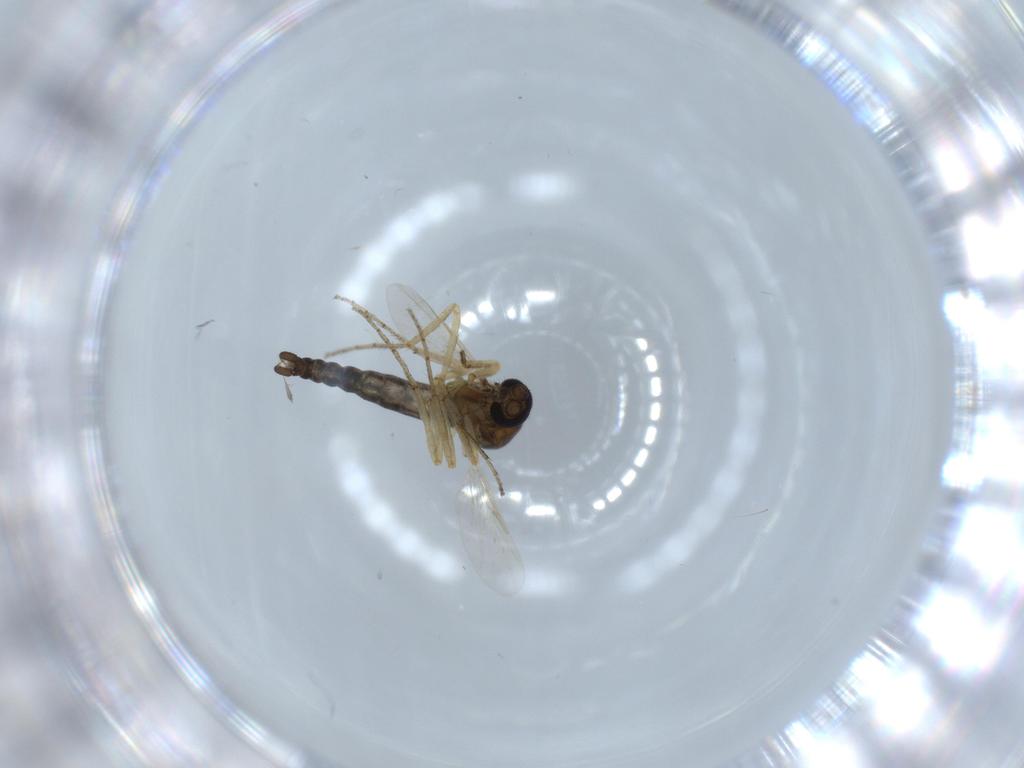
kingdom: Animalia
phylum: Arthropoda
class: Insecta
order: Diptera
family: Ceratopogonidae
